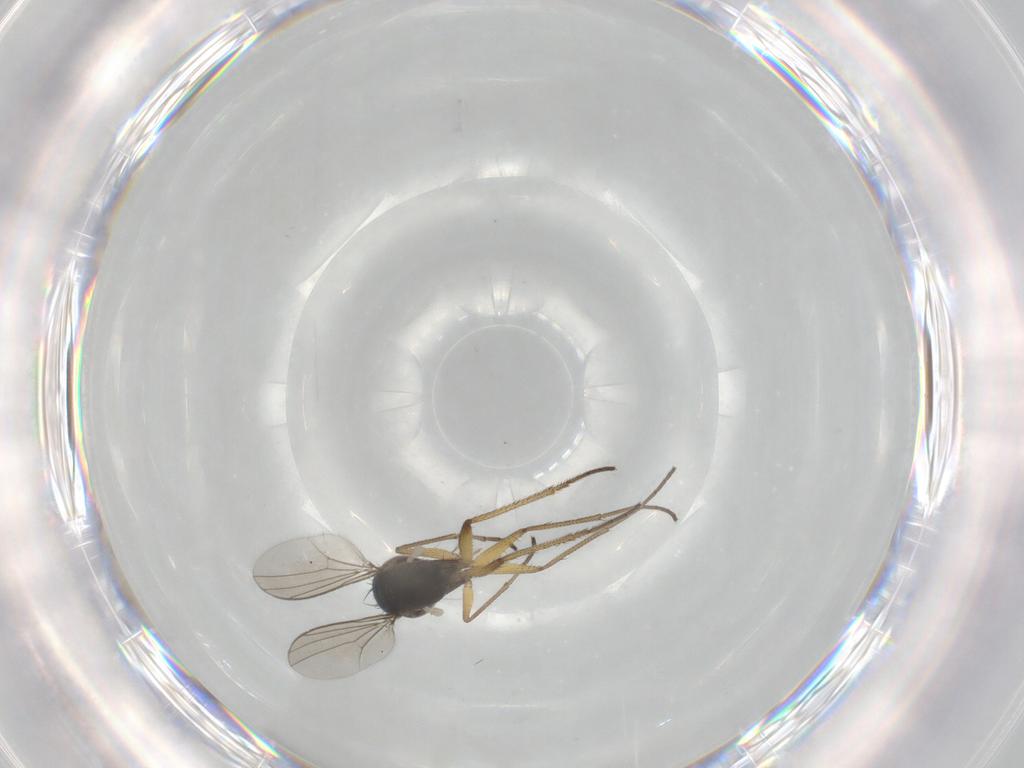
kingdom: Animalia
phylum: Arthropoda
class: Insecta
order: Diptera
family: Dolichopodidae
